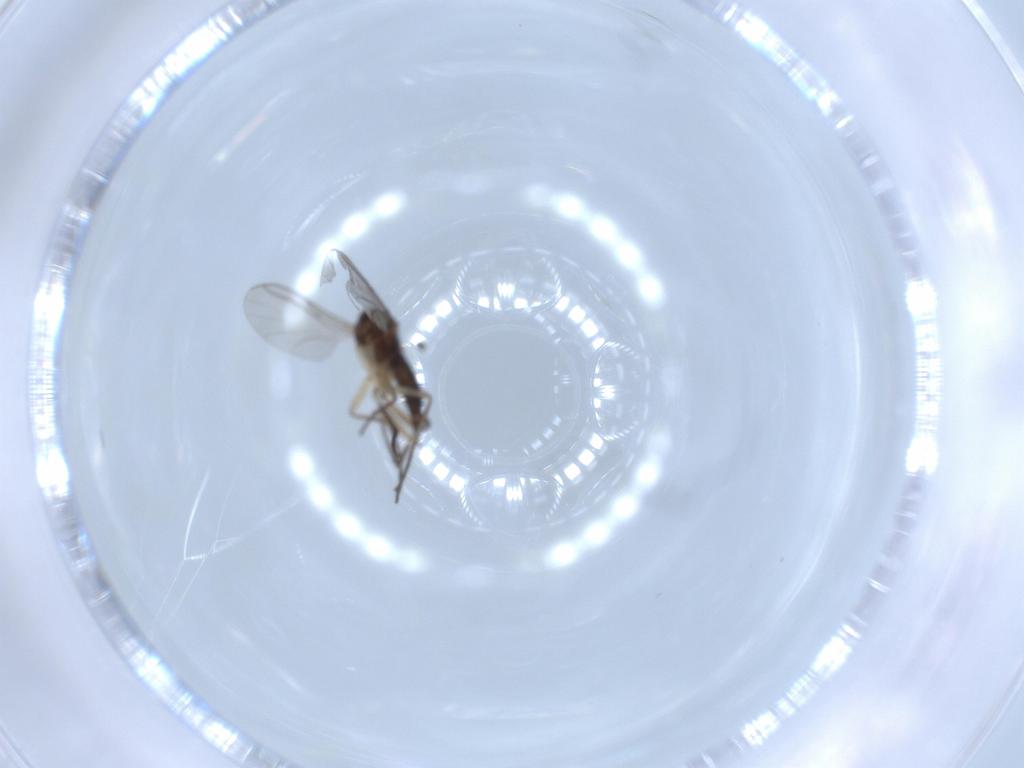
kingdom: Animalia
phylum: Arthropoda
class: Insecta
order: Diptera
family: Sciaridae
